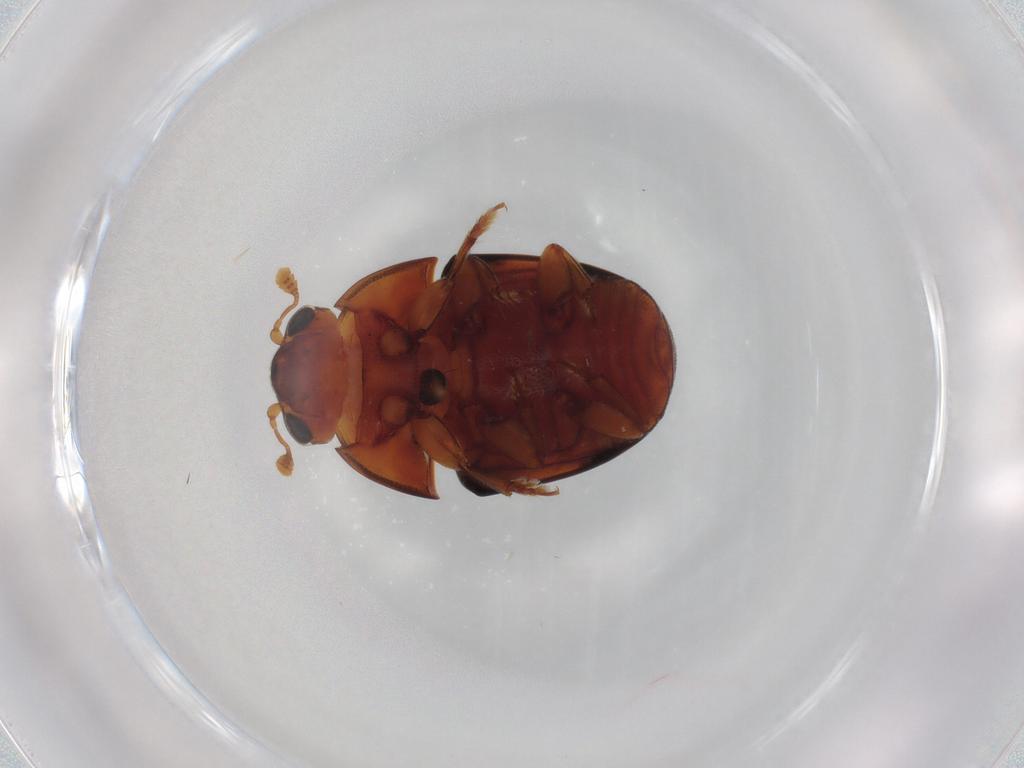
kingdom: Animalia
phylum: Arthropoda
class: Insecta
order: Coleoptera
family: Nitidulidae
